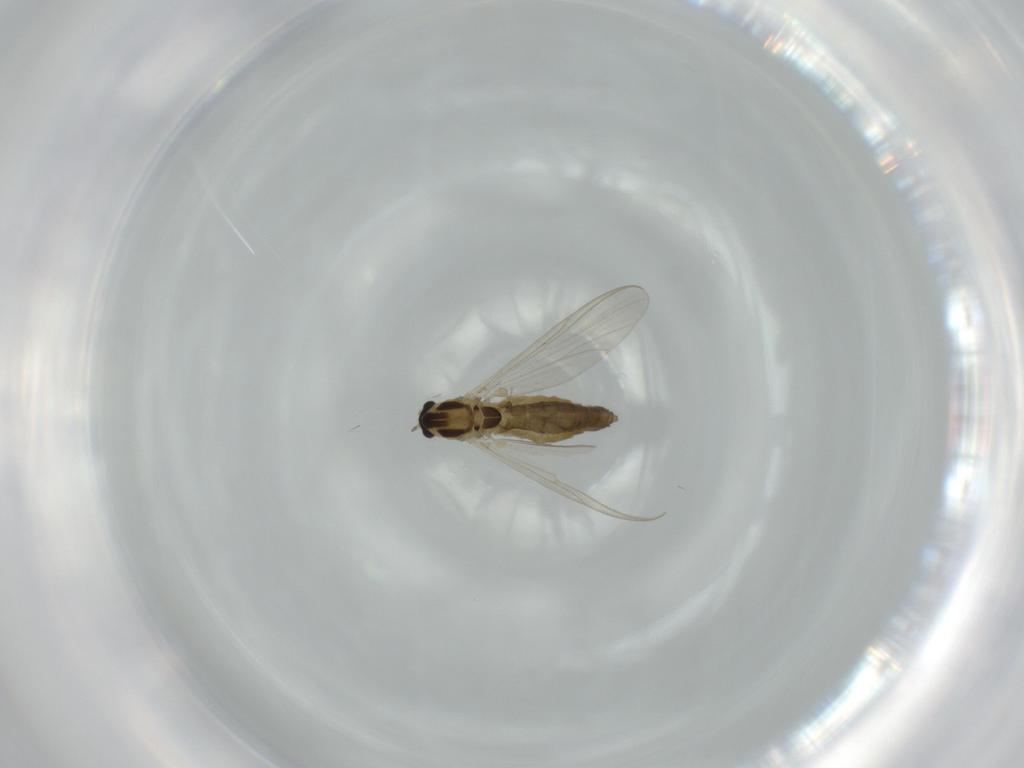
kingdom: Animalia
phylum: Arthropoda
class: Insecta
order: Diptera
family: Chironomidae
